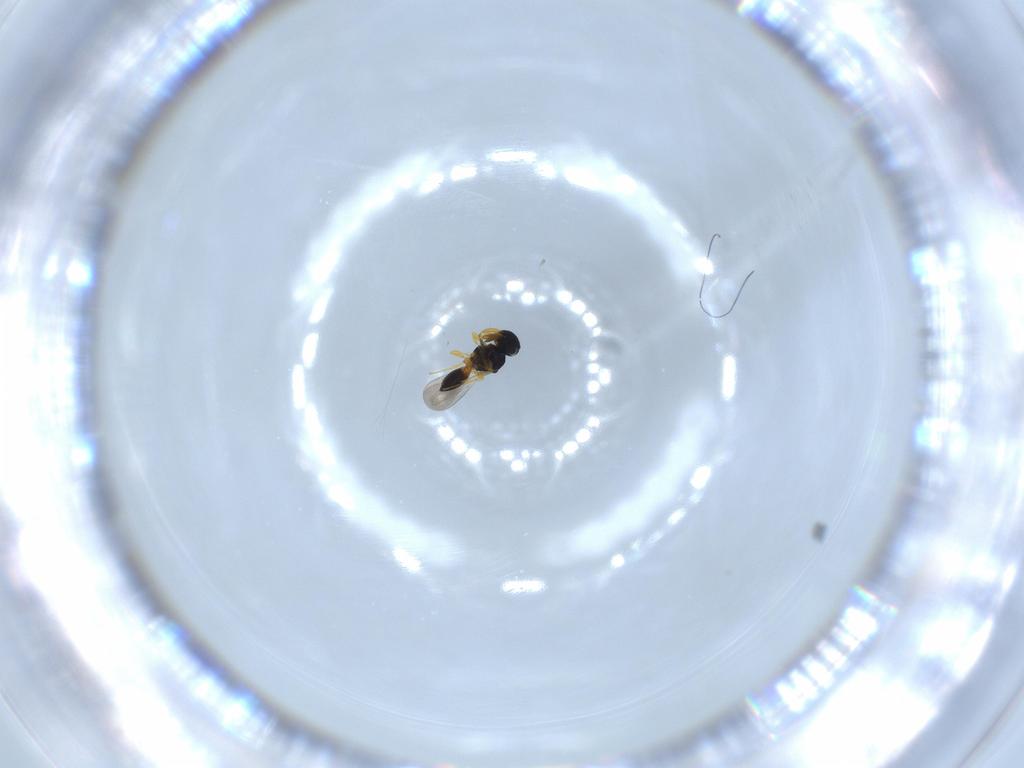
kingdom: Animalia
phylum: Arthropoda
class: Insecta
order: Hymenoptera
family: Platygastridae
